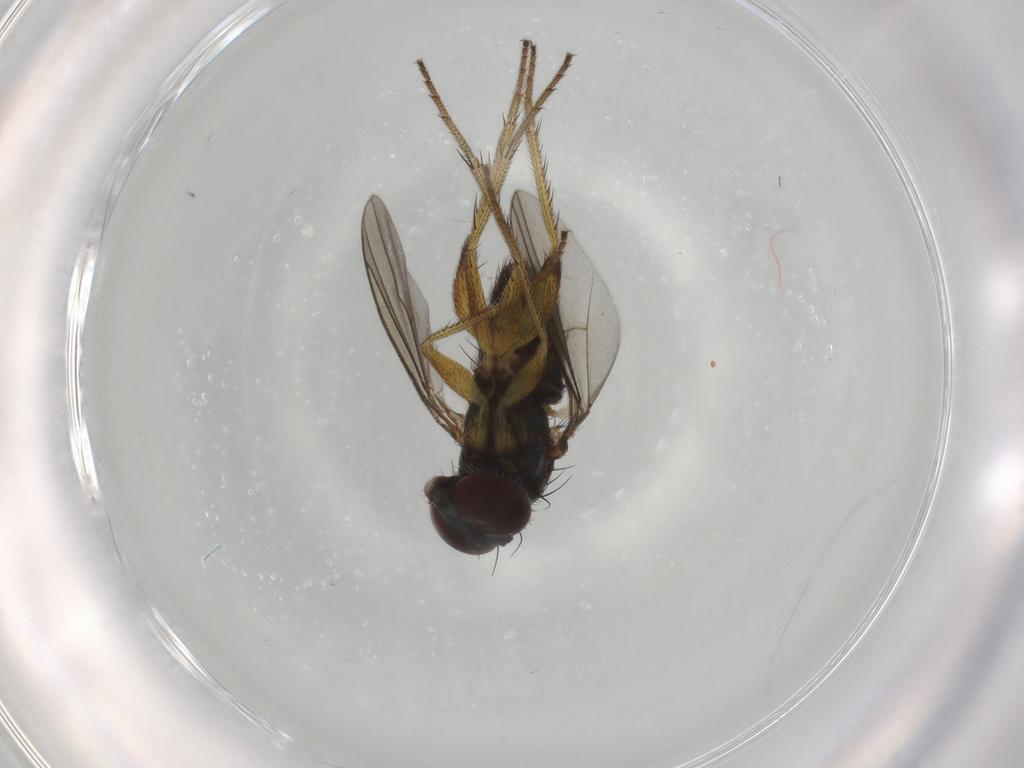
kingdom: Animalia
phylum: Arthropoda
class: Insecta
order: Diptera
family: Dolichopodidae
